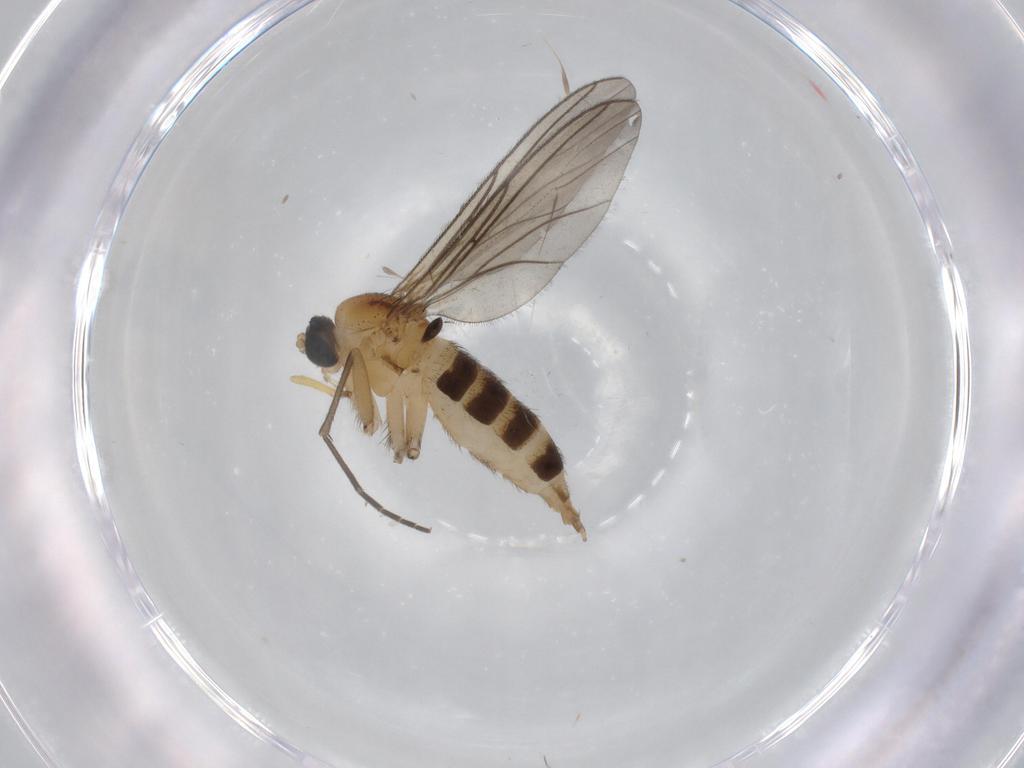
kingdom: Animalia
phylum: Arthropoda
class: Insecta
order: Diptera
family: Sciaridae
